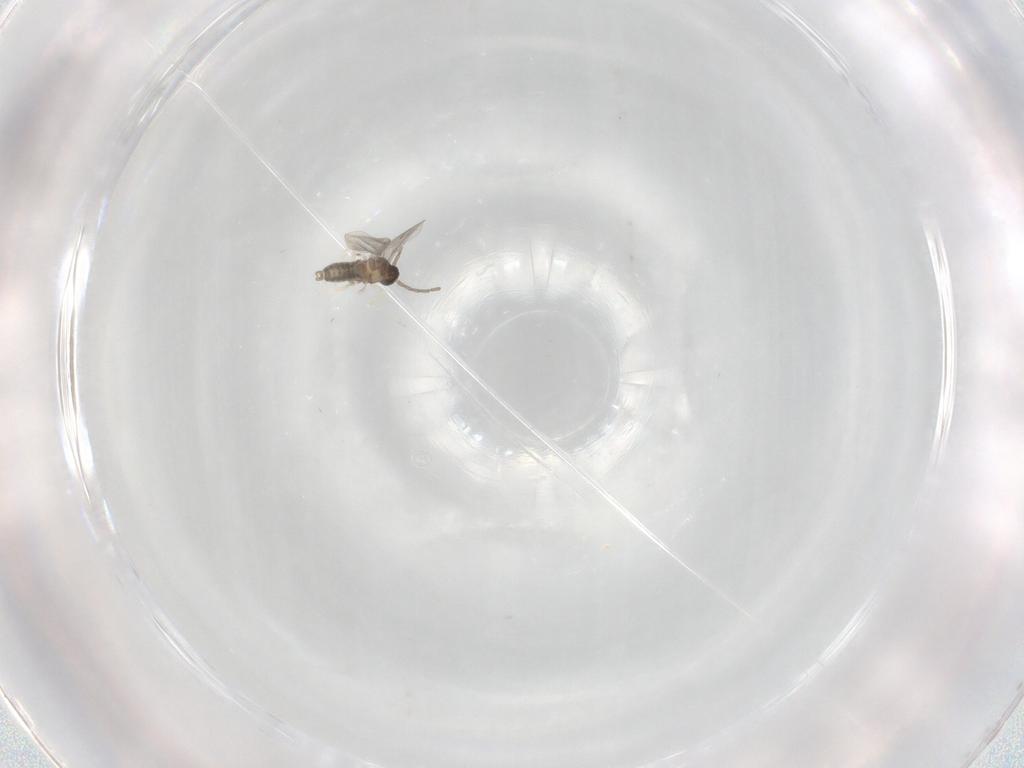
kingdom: Animalia
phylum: Arthropoda
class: Insecta
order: Diptera
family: Cecidomyiidae
